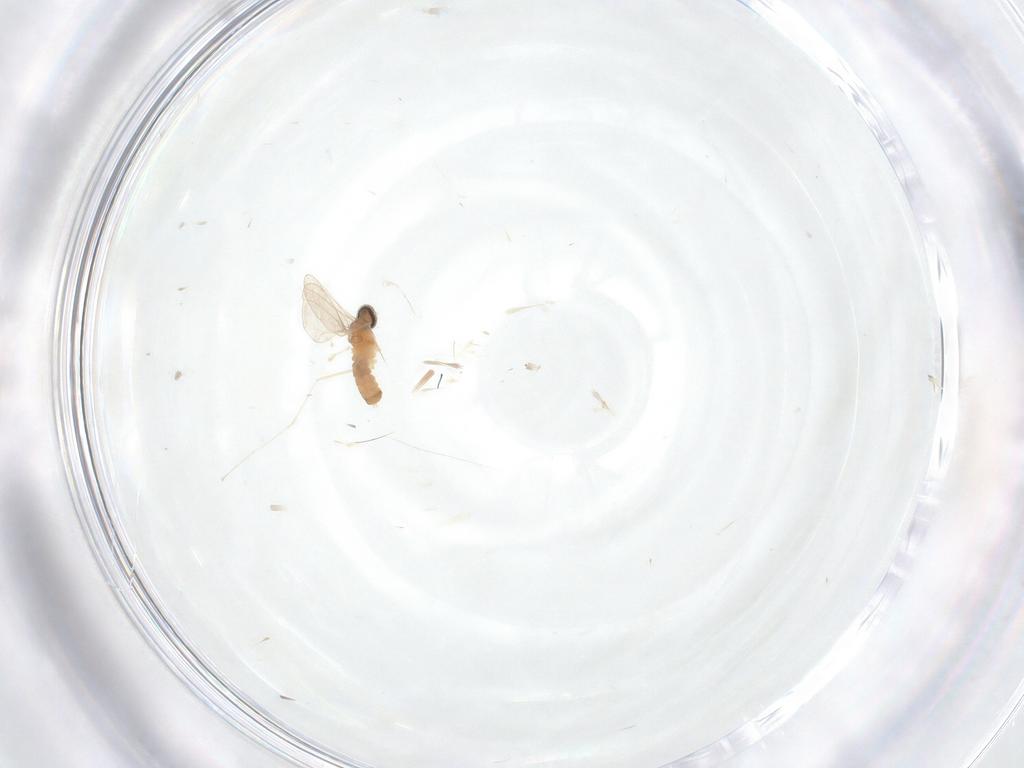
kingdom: Animalia
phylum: Arthropoda
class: Insecta
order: Diptera
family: Cecidomyiidae
